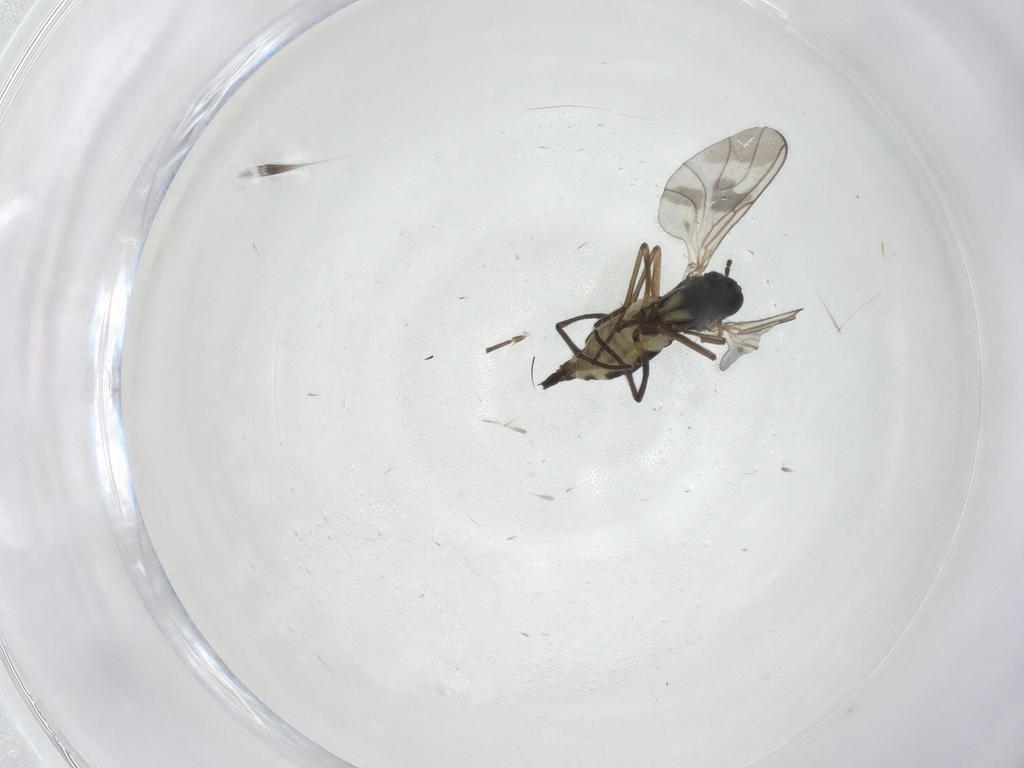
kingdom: Animalia
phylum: Arthropoda
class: Insecta
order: Diptera
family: Sciaridae
